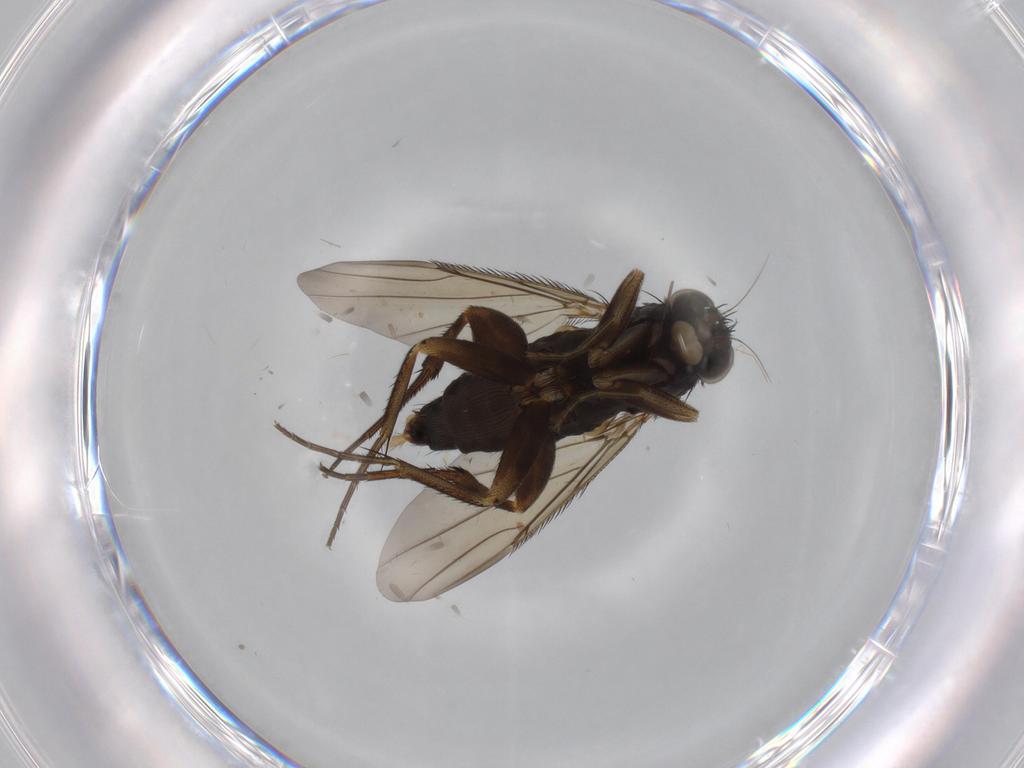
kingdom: Animalia
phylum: Arthropoda
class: Insecta
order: Diptera
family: Phoridae
